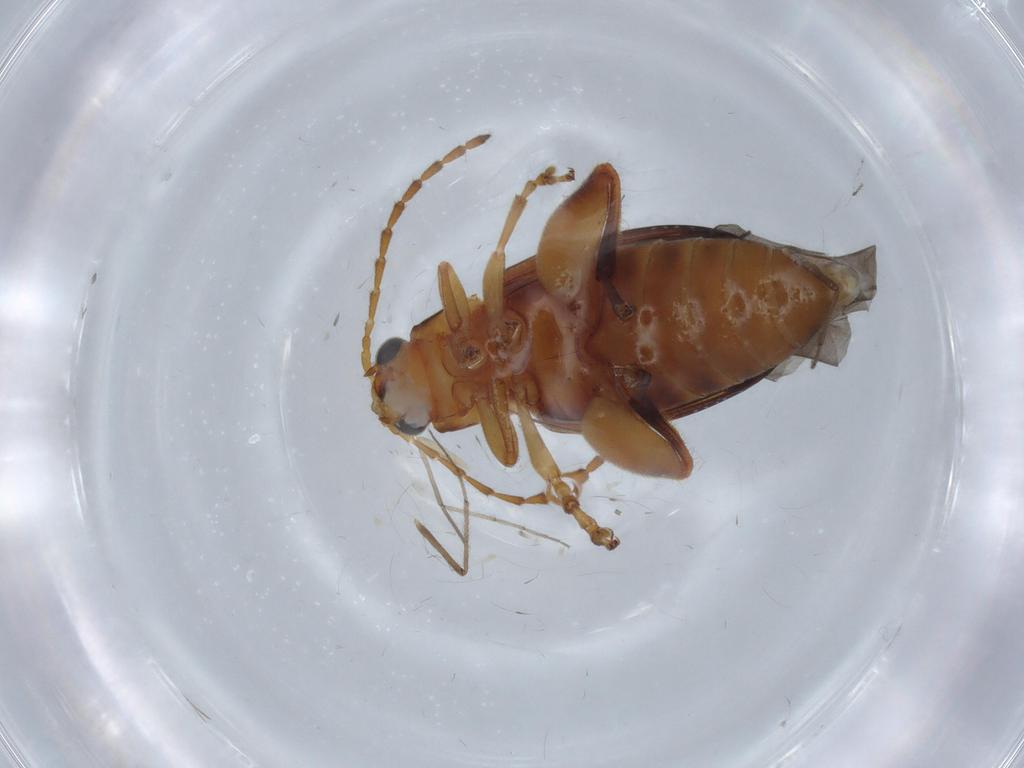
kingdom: Animalia
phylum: Arthropoda
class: Insecta
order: Coleoptera
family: Chrysomelidae
